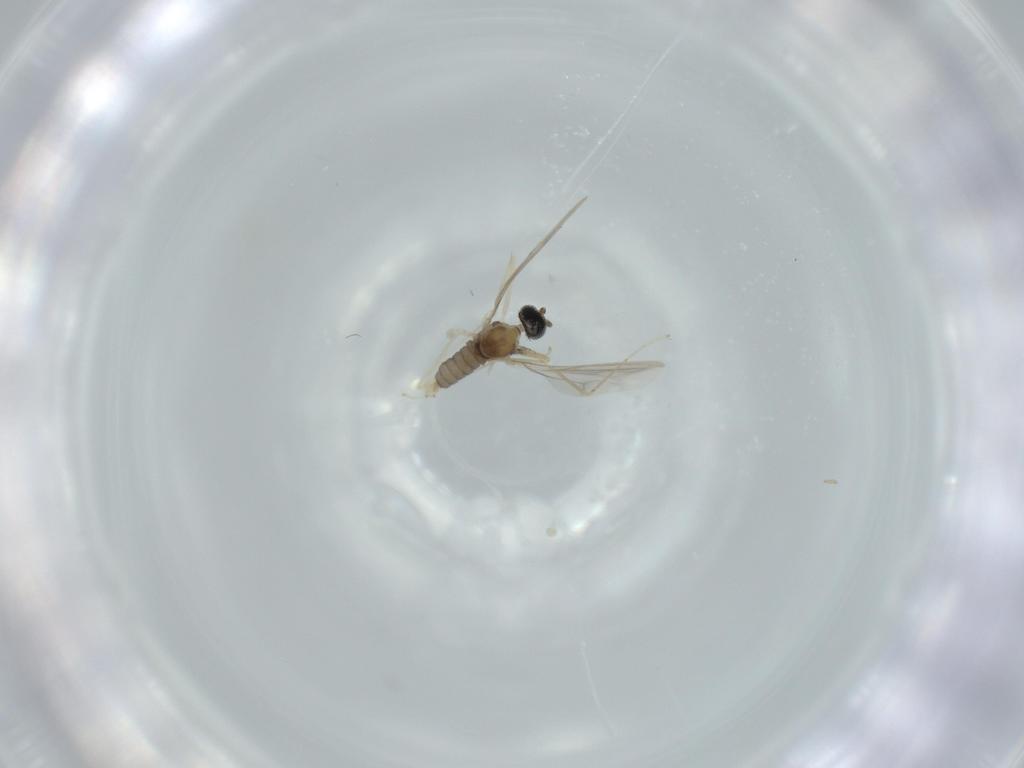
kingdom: Animalia
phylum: Arthropoda
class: Insecta
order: Diptera
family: Cecidomyiidae
